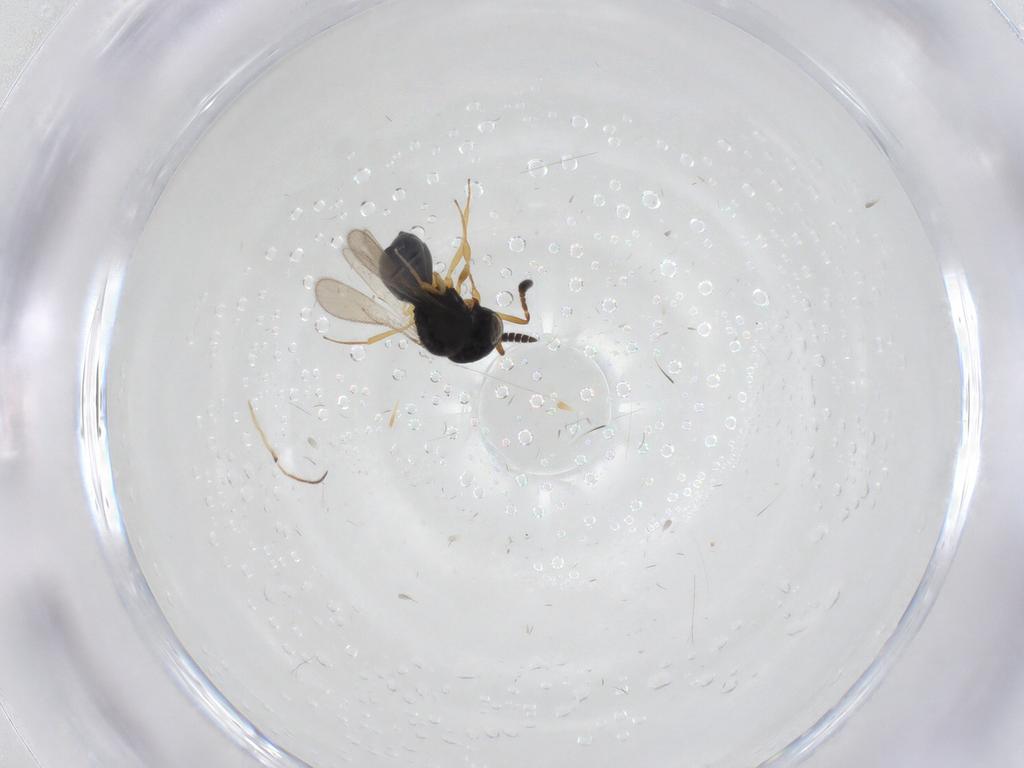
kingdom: Animalia
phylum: Arthropoda
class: Insecta
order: Hymenoptera
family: Scelionidae
